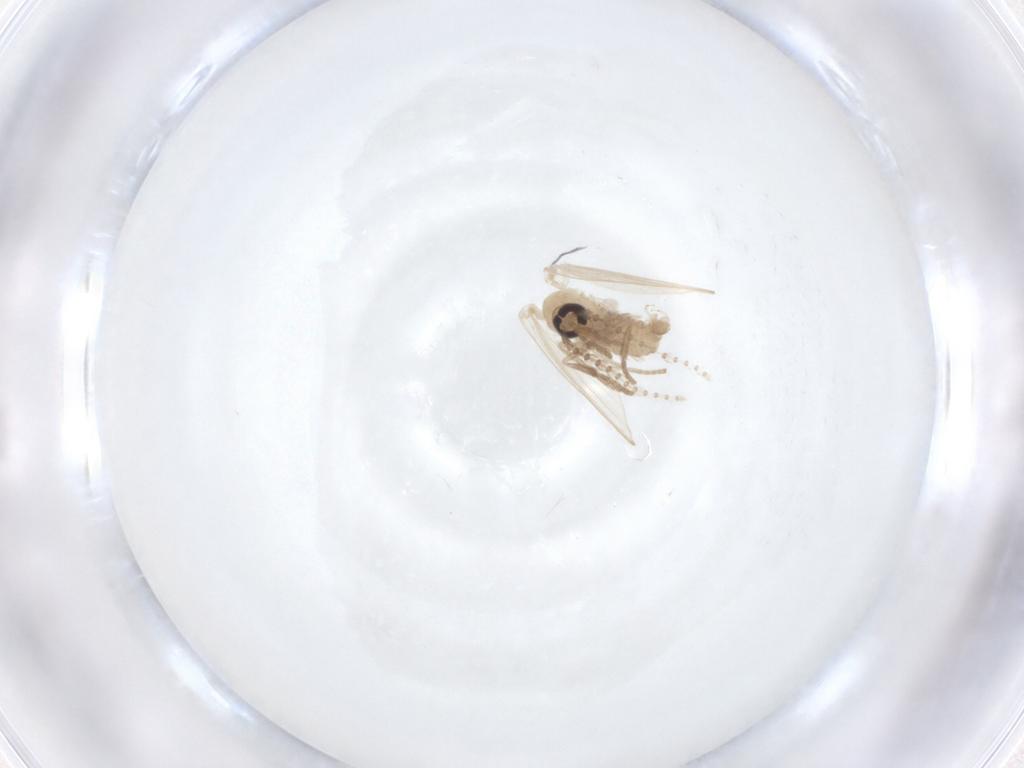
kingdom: Animalia
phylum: Arthropoda
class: Insecta
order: Diptera
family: Psychodidae
